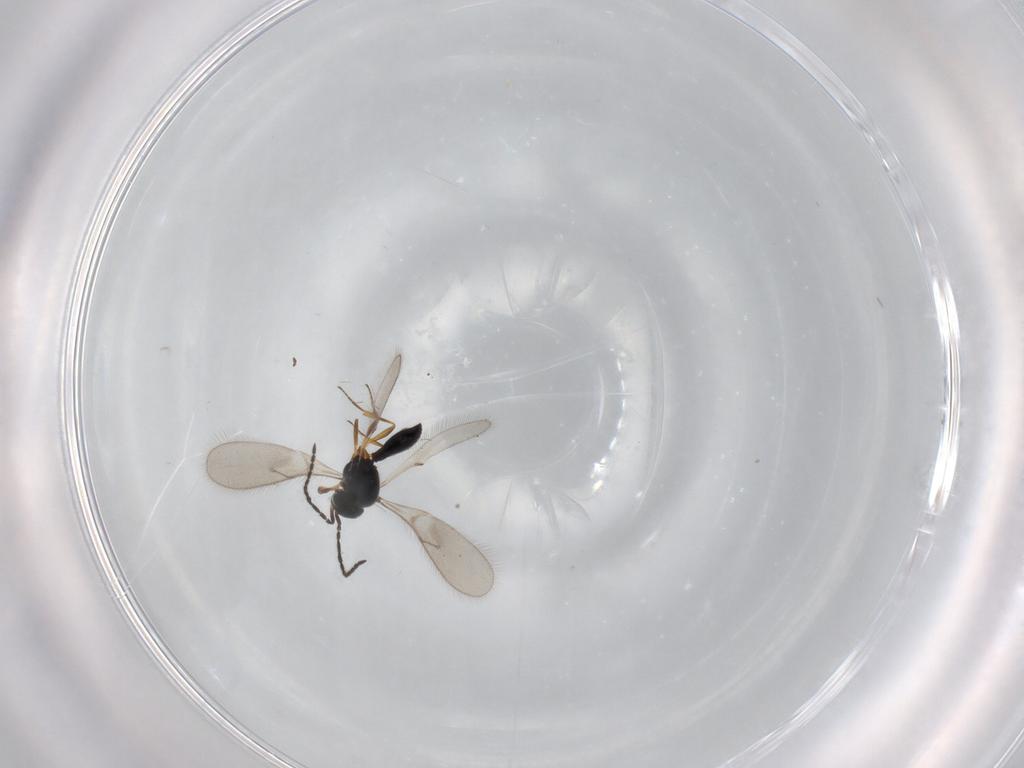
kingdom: Animalia
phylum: Arthropoda
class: Insecta
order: Hymenoptera
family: Scelionidae
